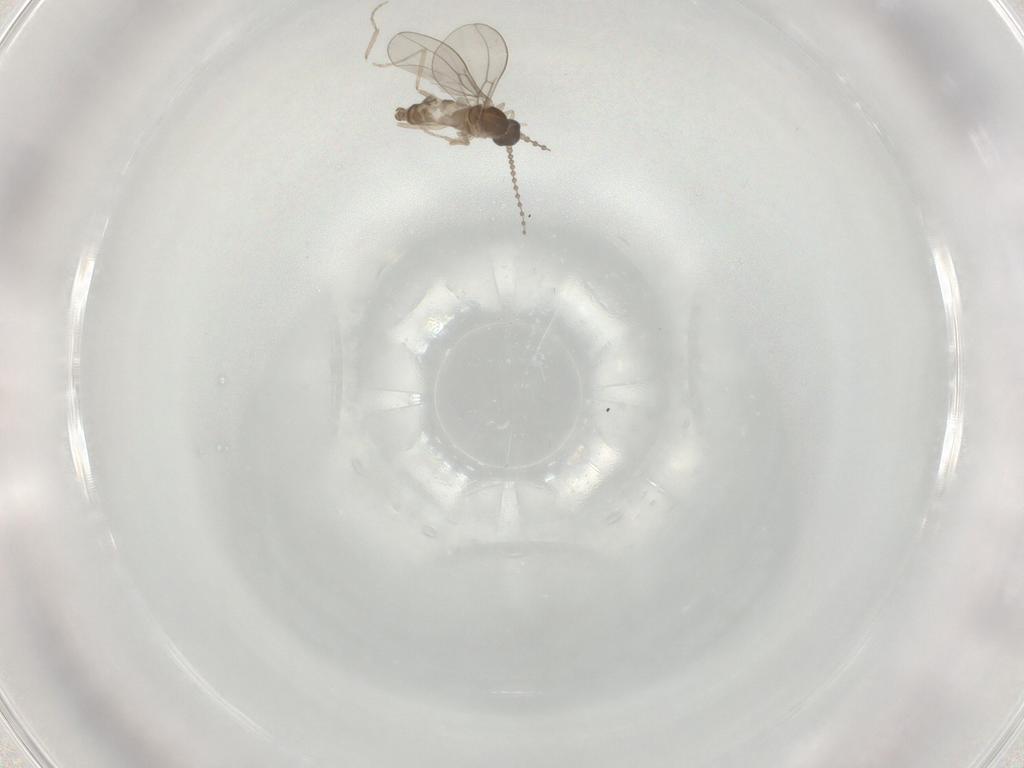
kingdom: Animalia
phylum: Arthropoda
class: Insecta
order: Diptera
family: Cecidomyiidae
